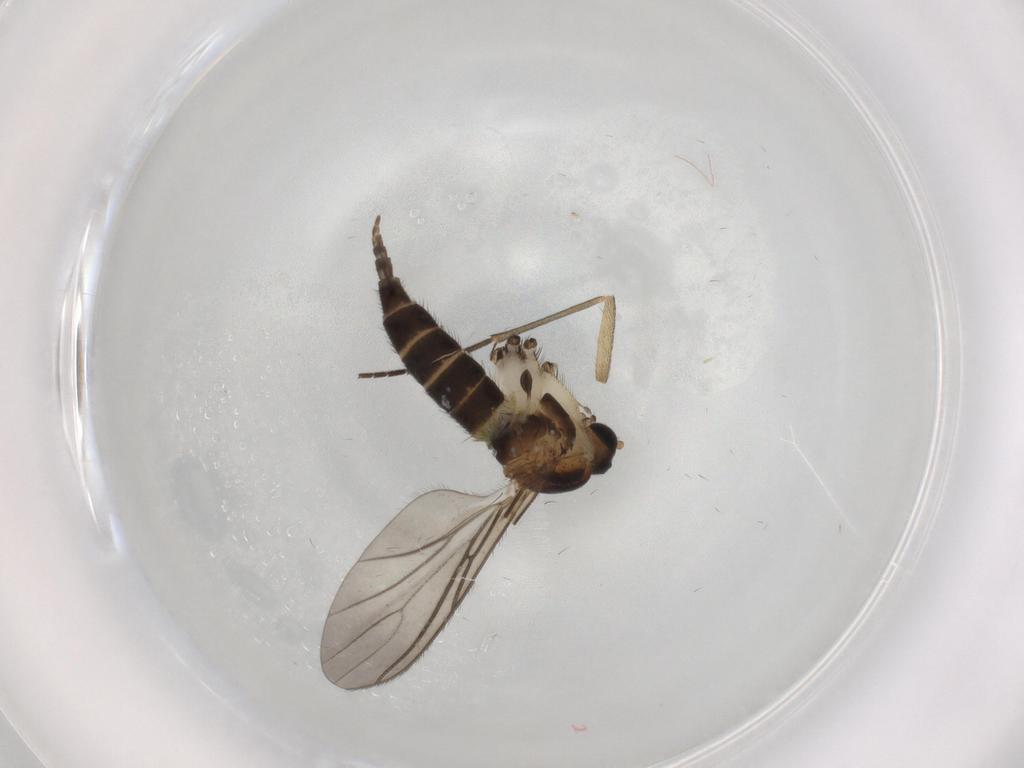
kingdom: Animalia
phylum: Arthropoda
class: Insecta
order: Diptera
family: Sciaridae
